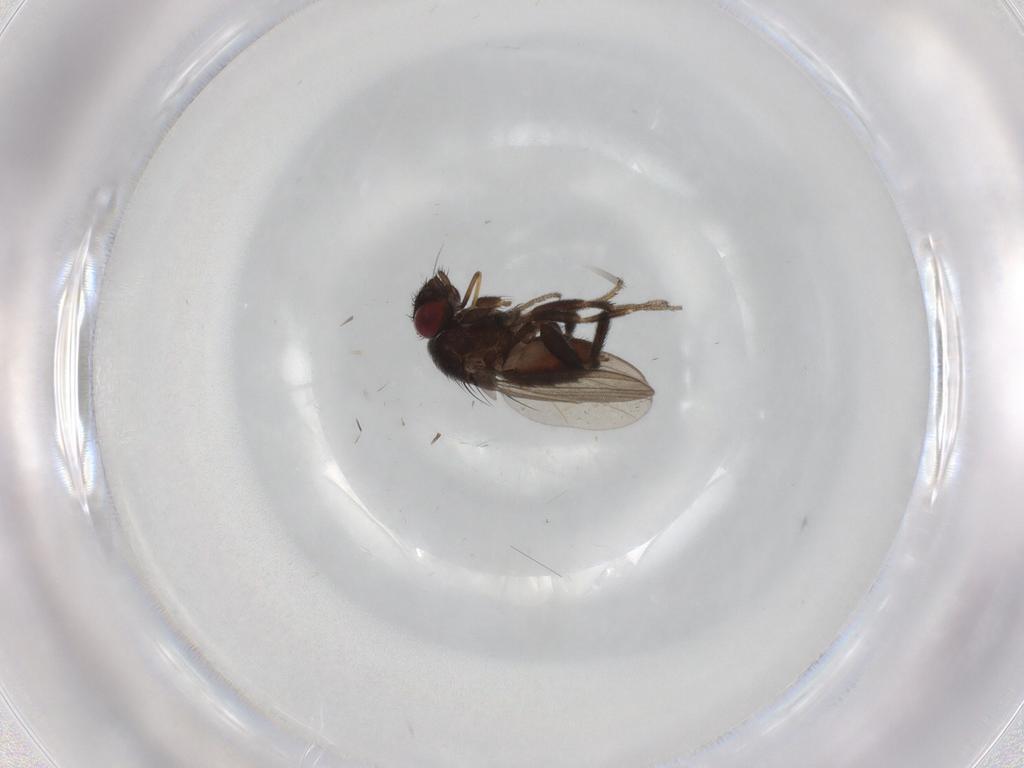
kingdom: Animalia
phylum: Arthropoda
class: Insecta
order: Diptera
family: Milichiidae
